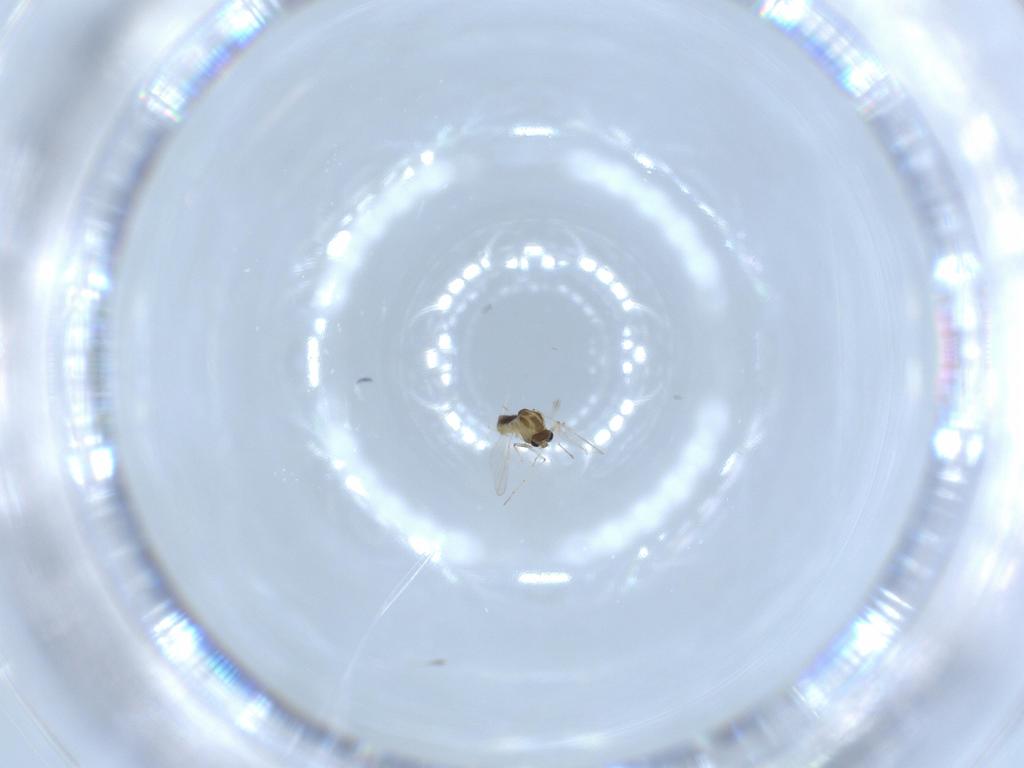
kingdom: Animalia
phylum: Arthropoda
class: Insecta
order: Diptera
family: Chironomidae
